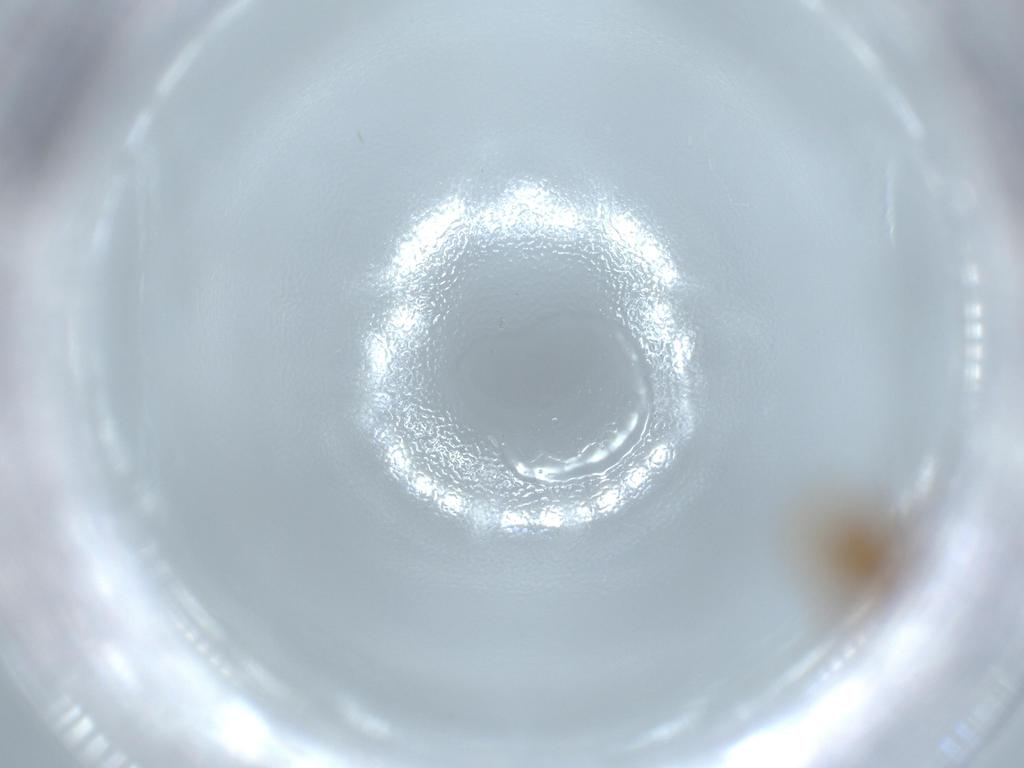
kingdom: Animalia
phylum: Arthropoda
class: Insecta
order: Hymenoptera
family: Formicidae
